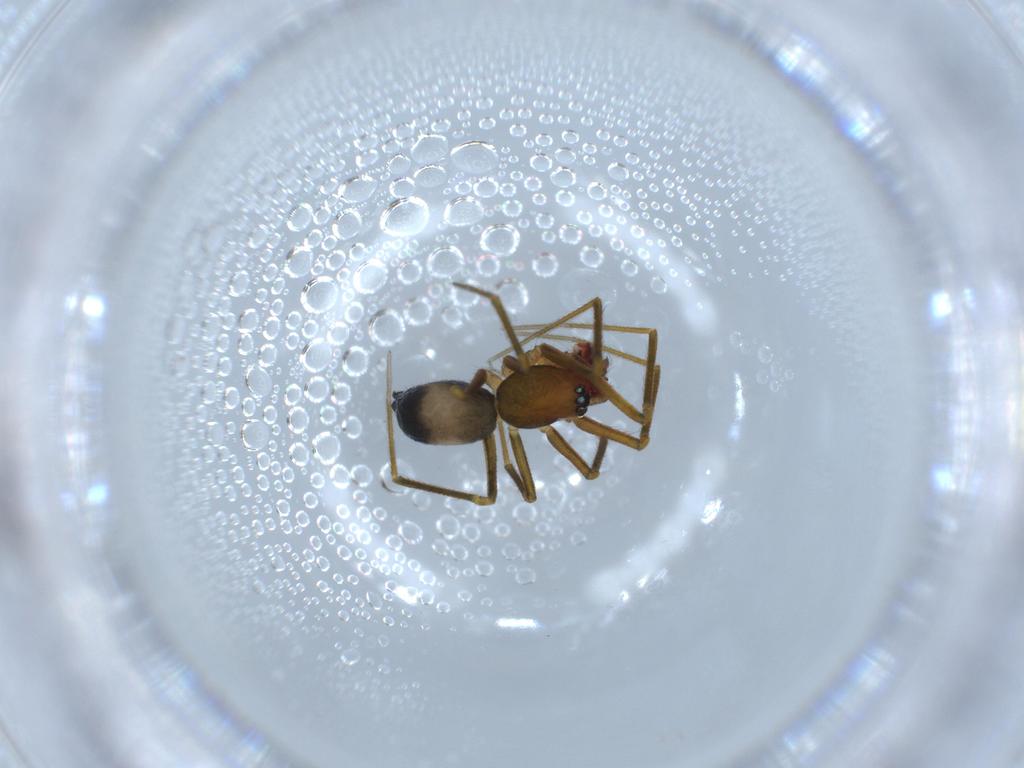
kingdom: Animalia
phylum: Arthropoda
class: Arachnida
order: Araneae
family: Linyphiidae
